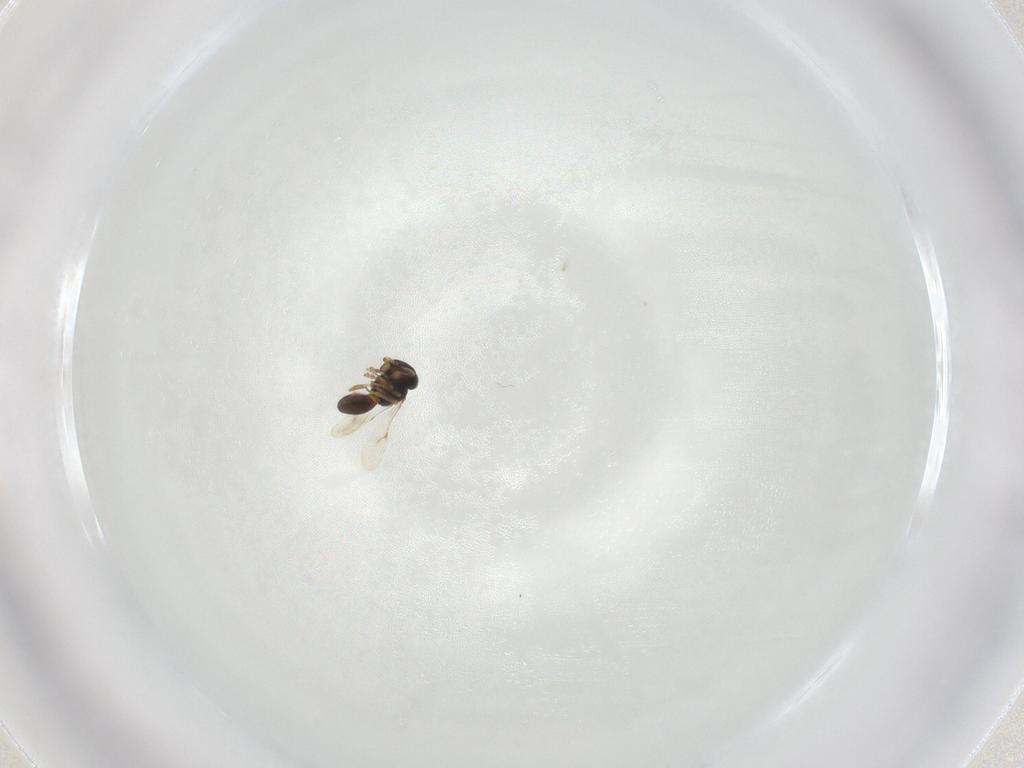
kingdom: Animalia
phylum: Arthropoda
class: Insecta
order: Hymenoptera
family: Scelionidae
